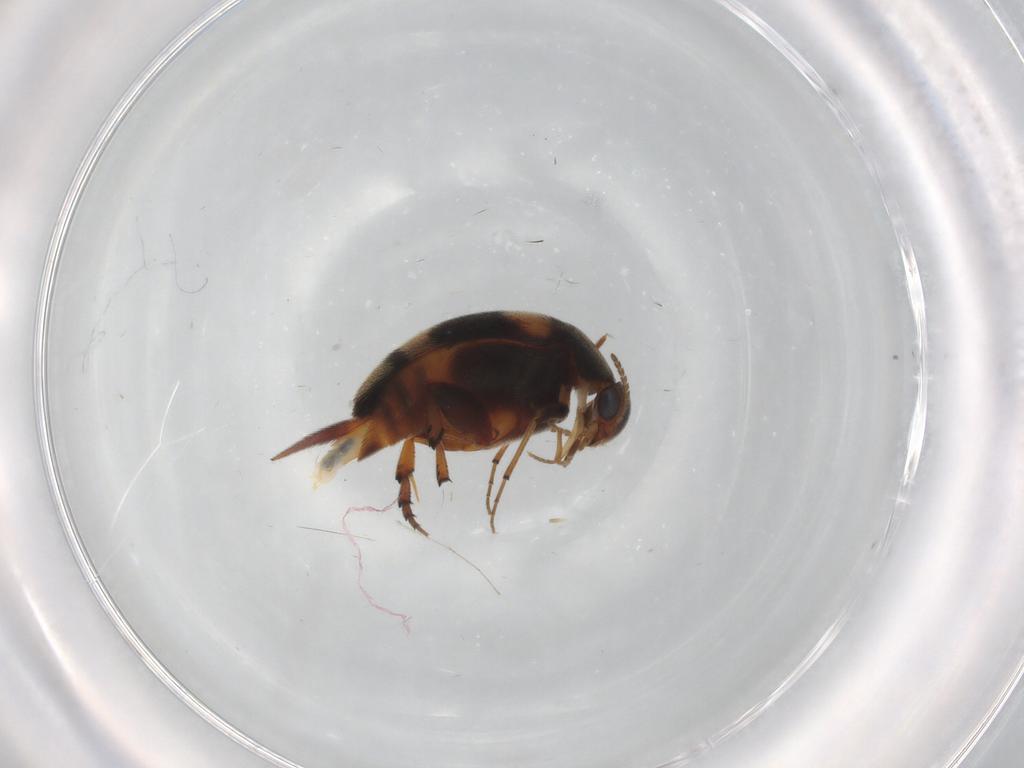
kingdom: Animalia
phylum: Arthropoda
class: Insecta
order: Coleoptera
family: Mordellidae
